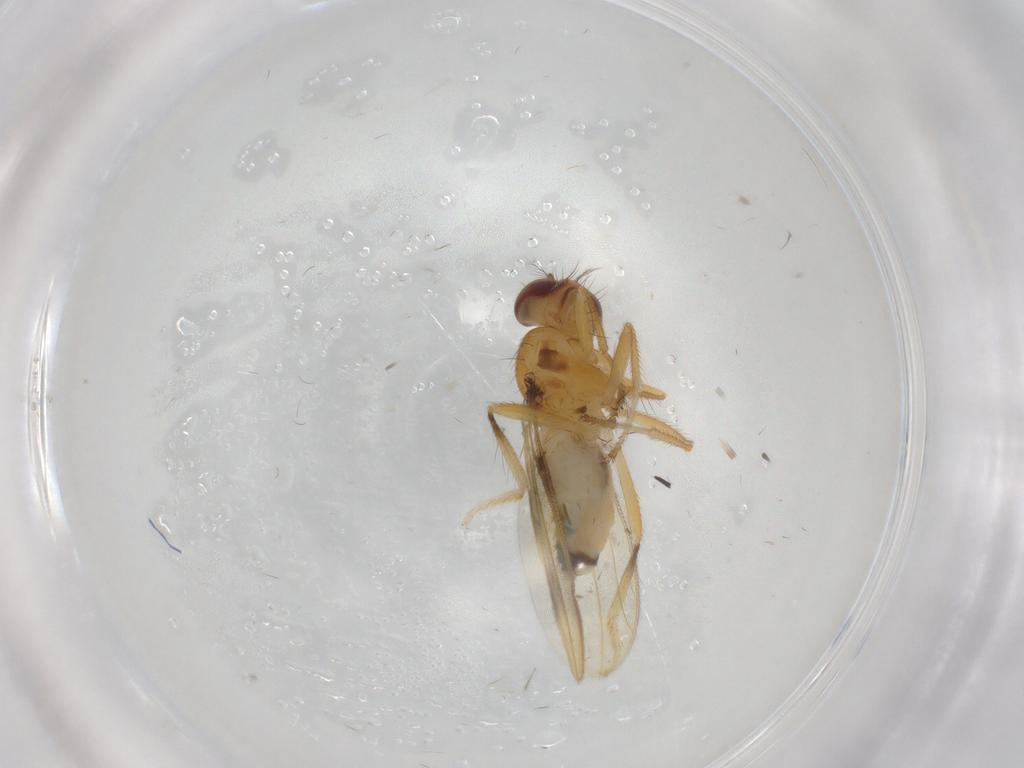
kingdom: Animalia
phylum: Arthropoda
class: Insecta
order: Diptera
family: Periscelididae
